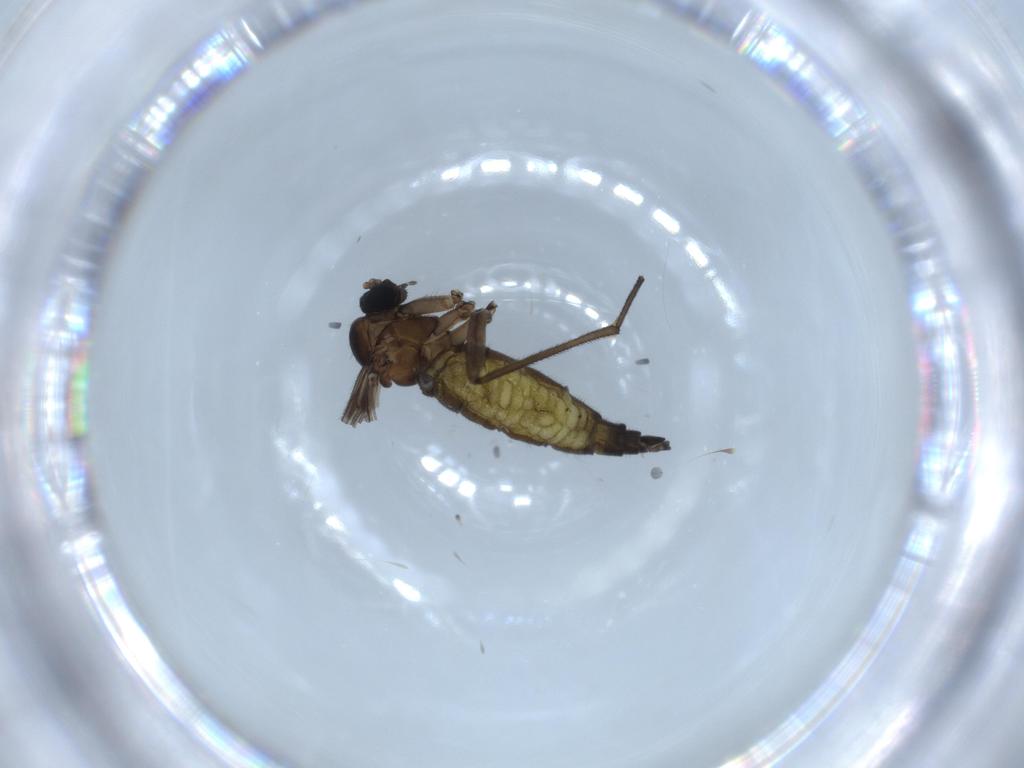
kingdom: Animalia
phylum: Arthropoda
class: Insecta
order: Diptera
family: Sciaridae
